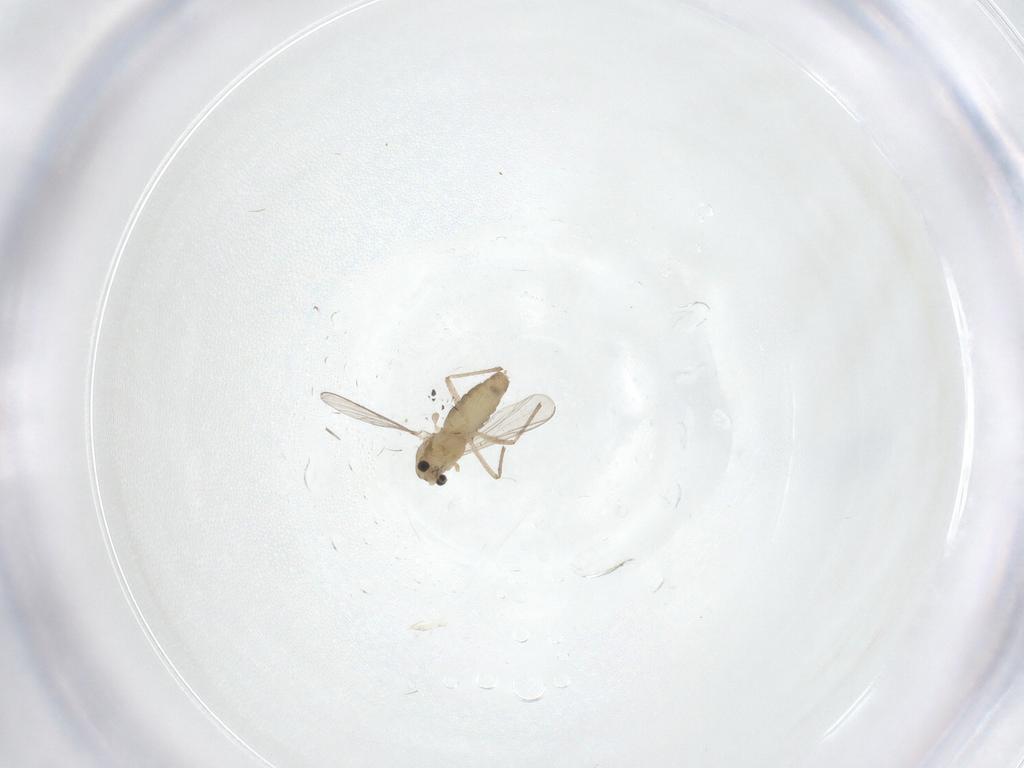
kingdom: Animalia
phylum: Arthropoda
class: Insecta
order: Diptera
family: Chironomidae
